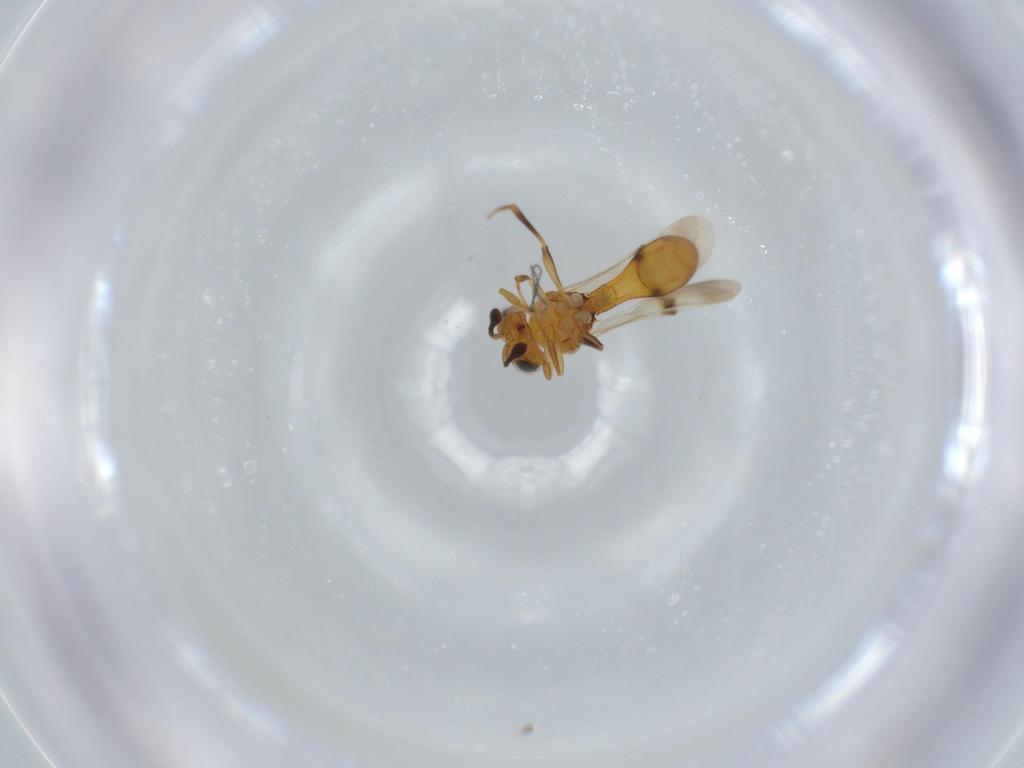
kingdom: Animalia
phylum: Arthropoda
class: Insecta
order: Hymenoptera
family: Scelionidae
